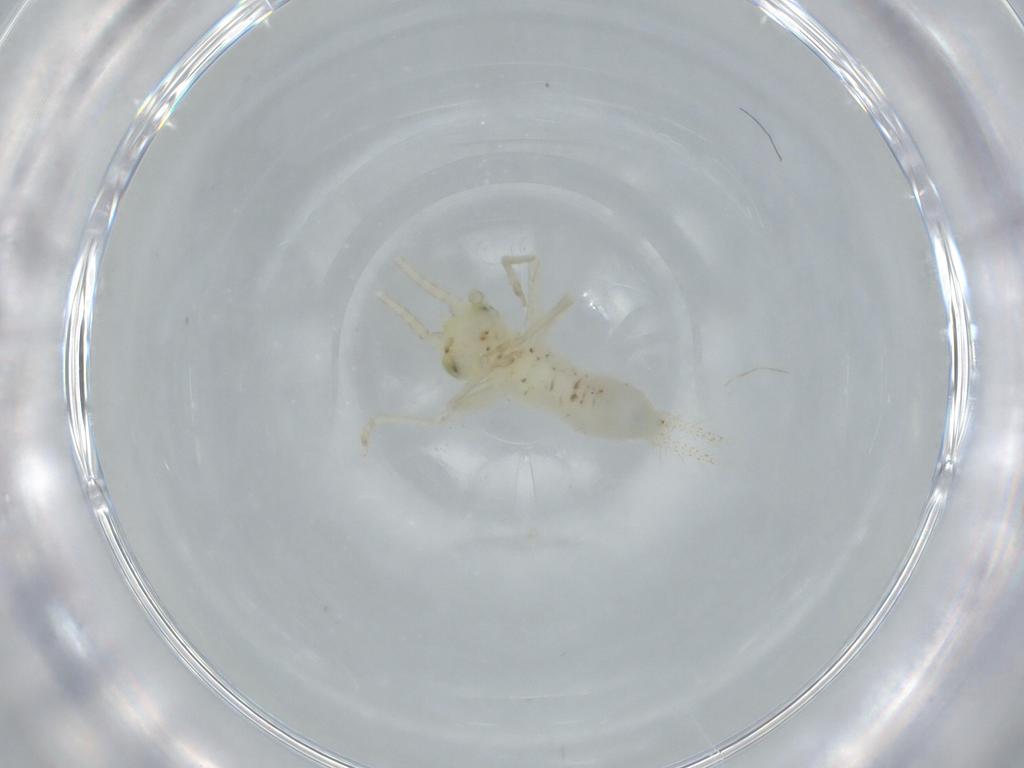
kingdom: Animalia
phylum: Arthropoda
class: Insecta
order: Orthoptera
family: Trigonidiidae
